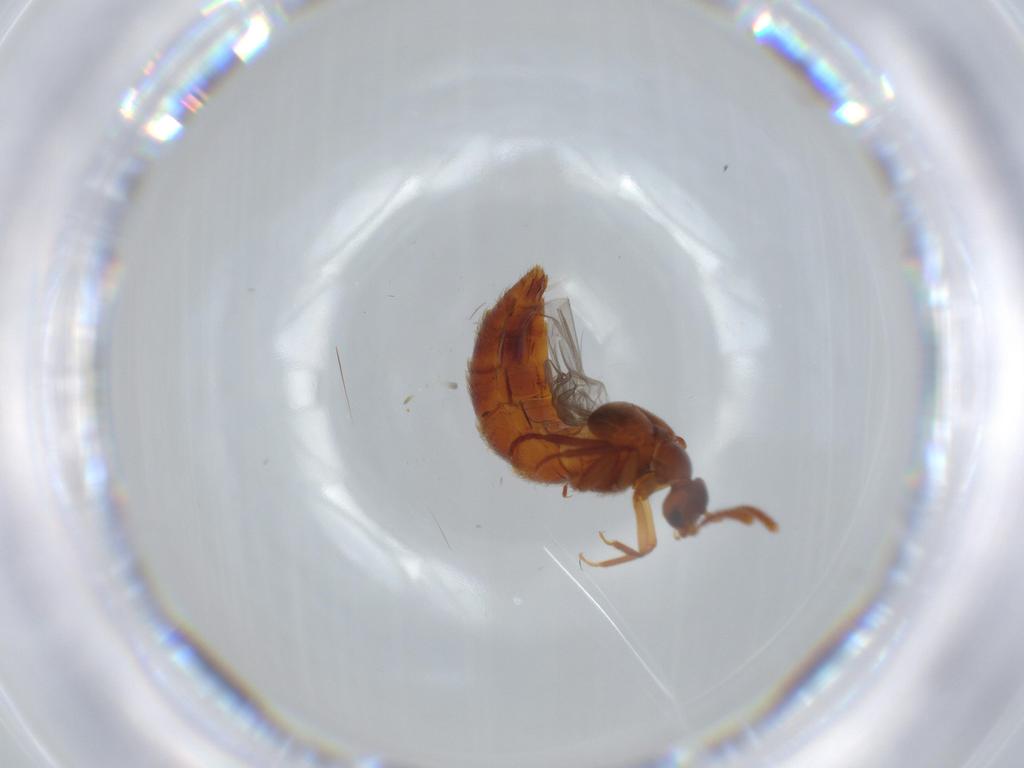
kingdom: Animalia
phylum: Arthropoda
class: Insecta
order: Coleoptera
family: Staphylinidae
